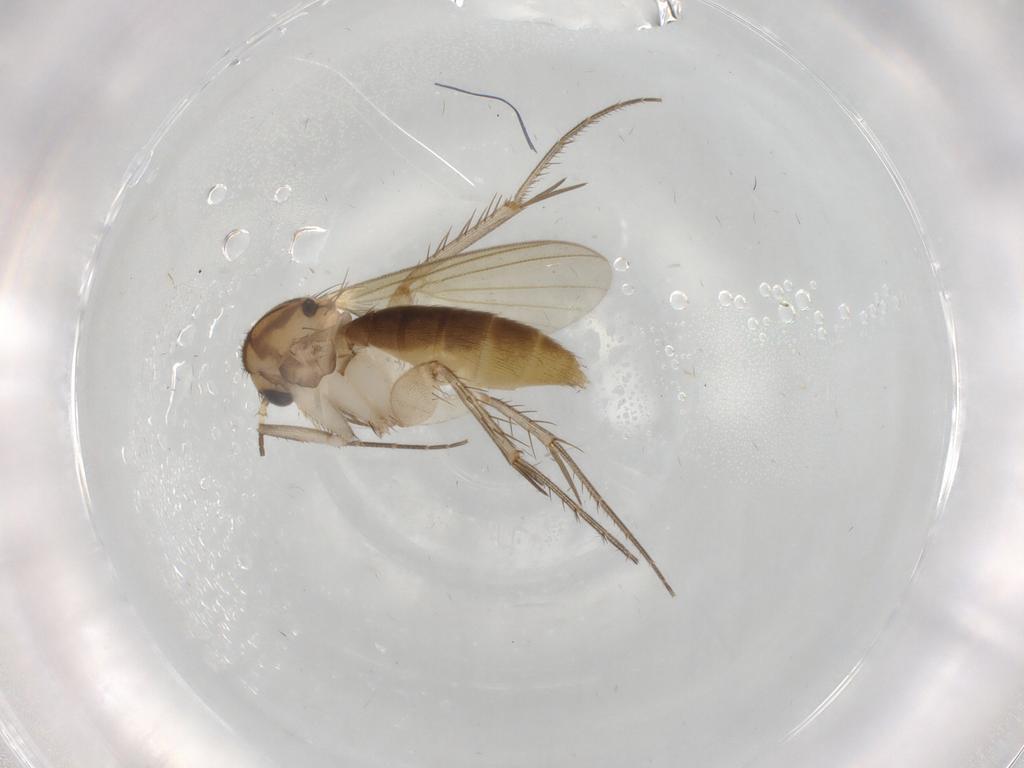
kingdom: Animalia
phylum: Arthropoda
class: Insecta
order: Diptera
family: Mycetophilidae
